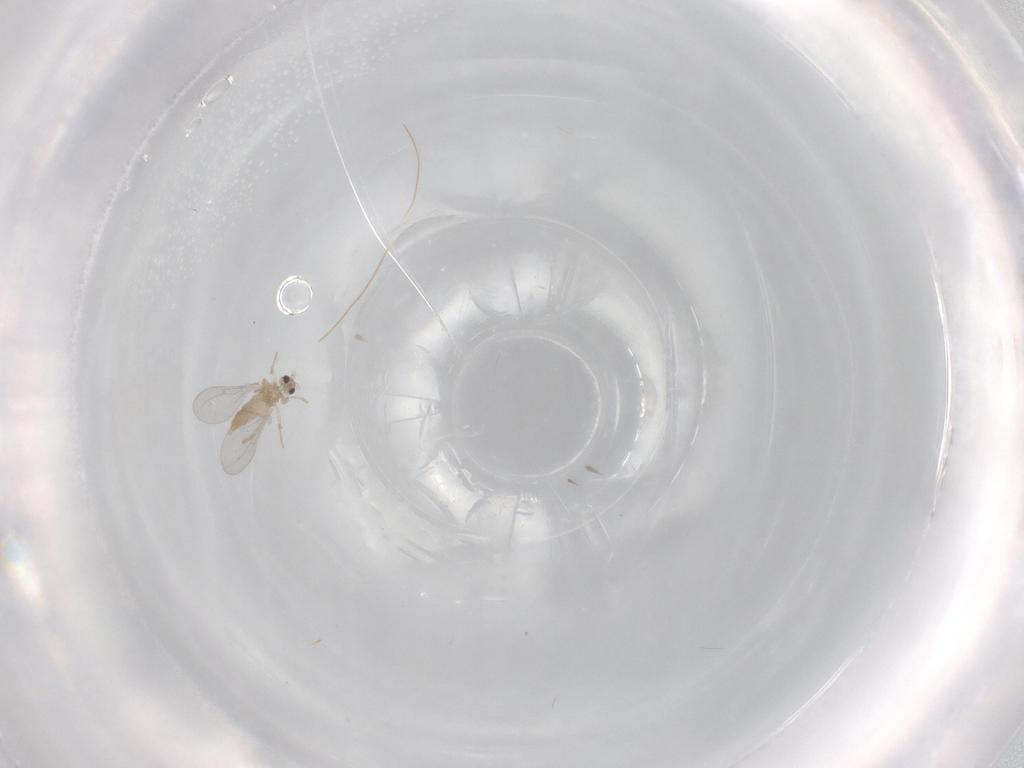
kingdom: Animalia
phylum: Arthropoda
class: Insecta
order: Diptera
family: Cecidomyiidae
